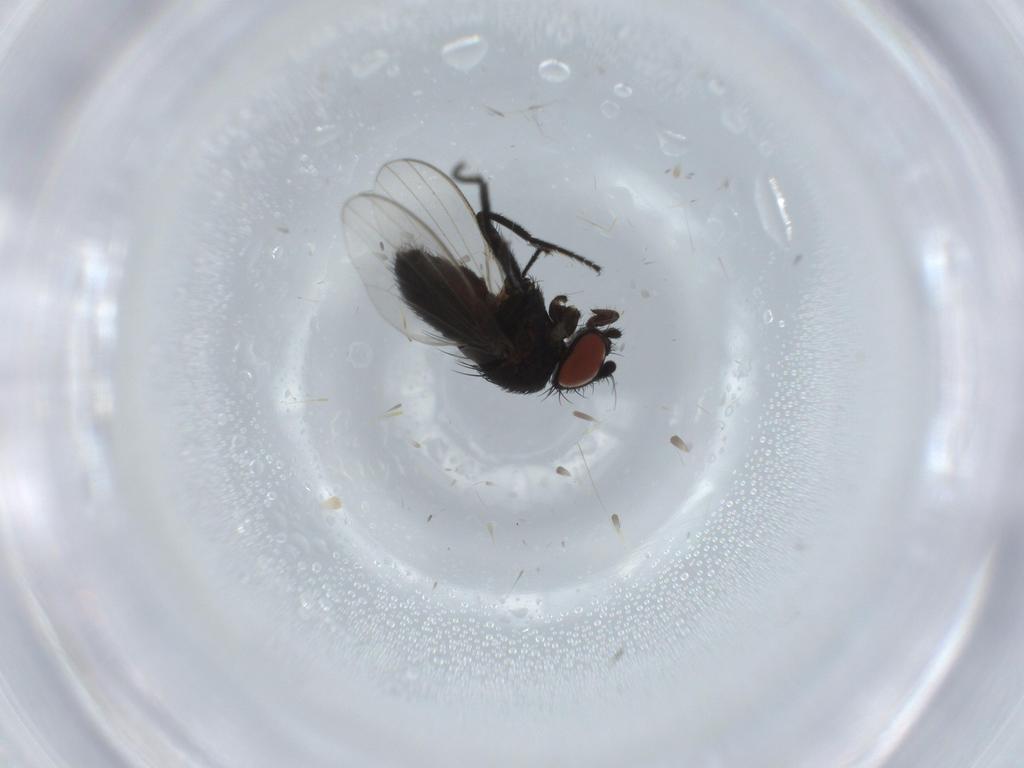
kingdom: Animalia
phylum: Arthropoda
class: Insecta
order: Diptera
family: Milichiidae
